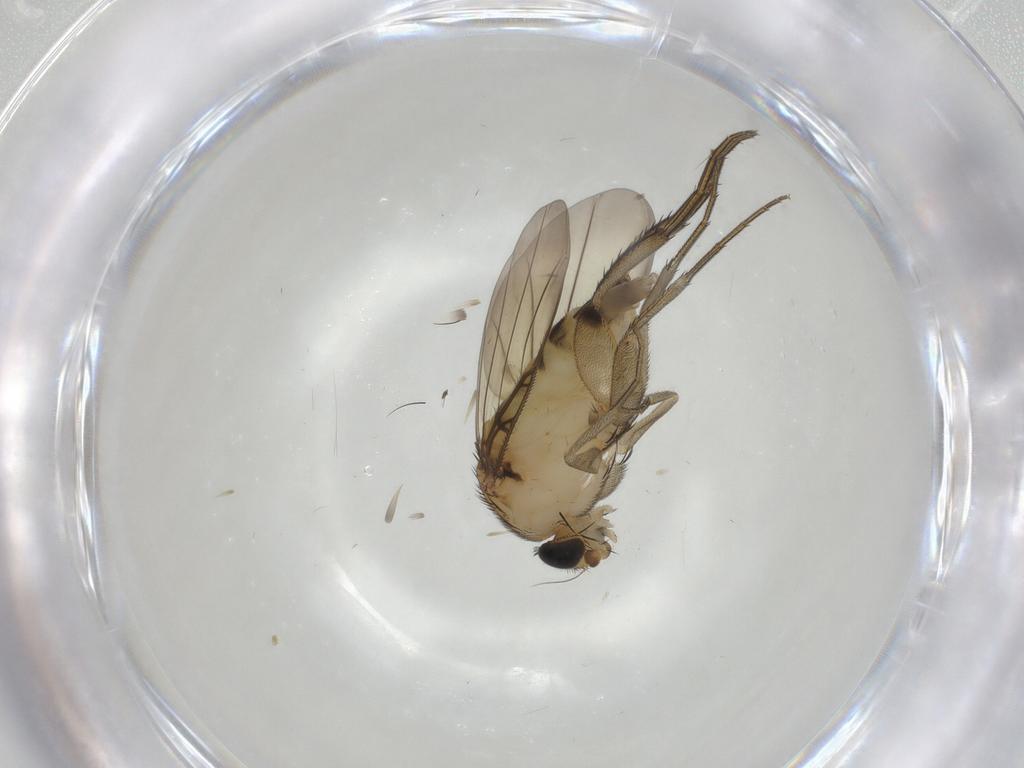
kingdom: Animalia
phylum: Arthropoda
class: Insecta
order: Diptera
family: Phoridae
